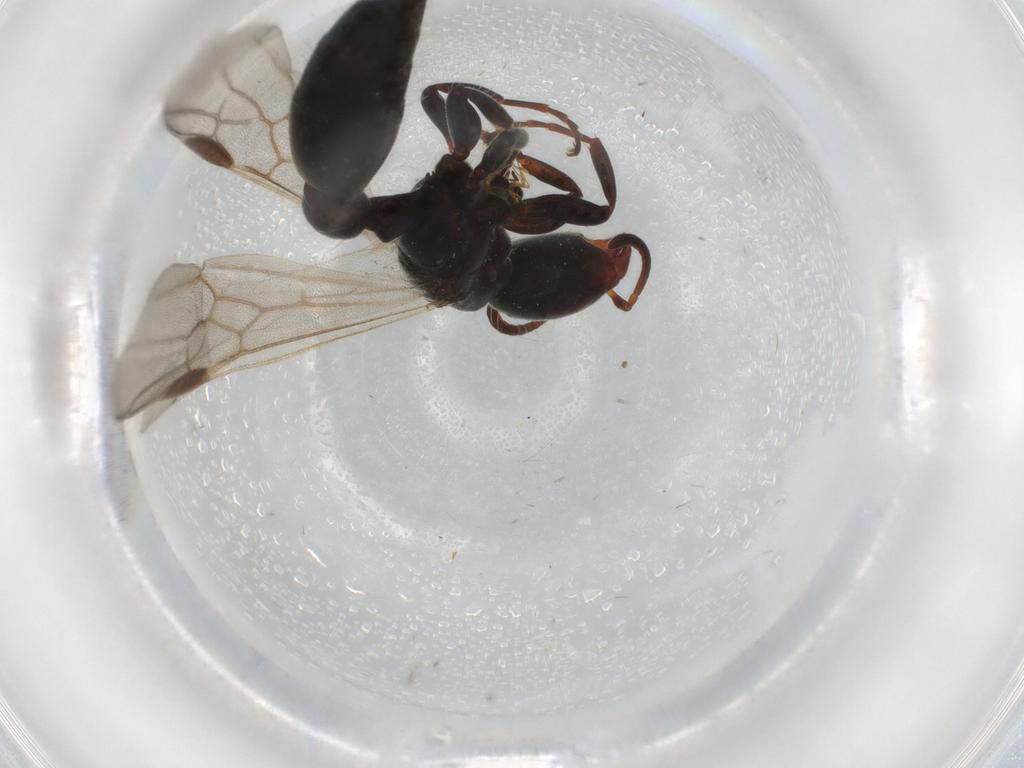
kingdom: Animalia
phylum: Arthropoda
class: Insecta
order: Hymenoptera
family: Formicidae
